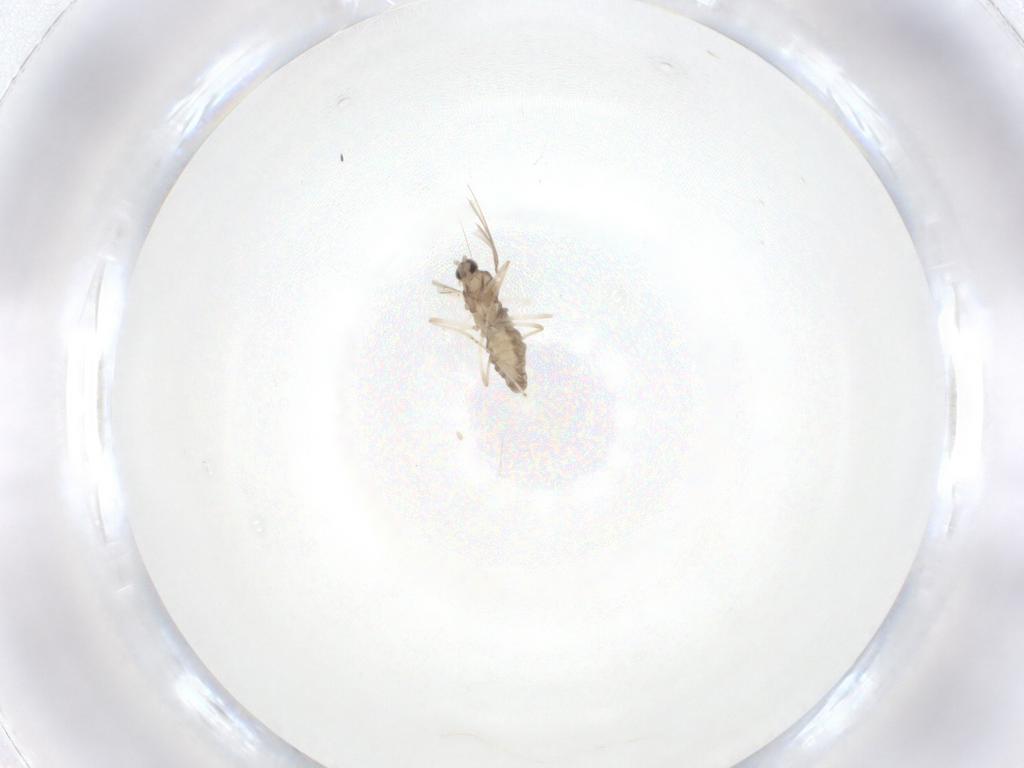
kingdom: Animalia
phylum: Arthropoda
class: Insecta
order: Diptera
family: Cecidomyiidae
